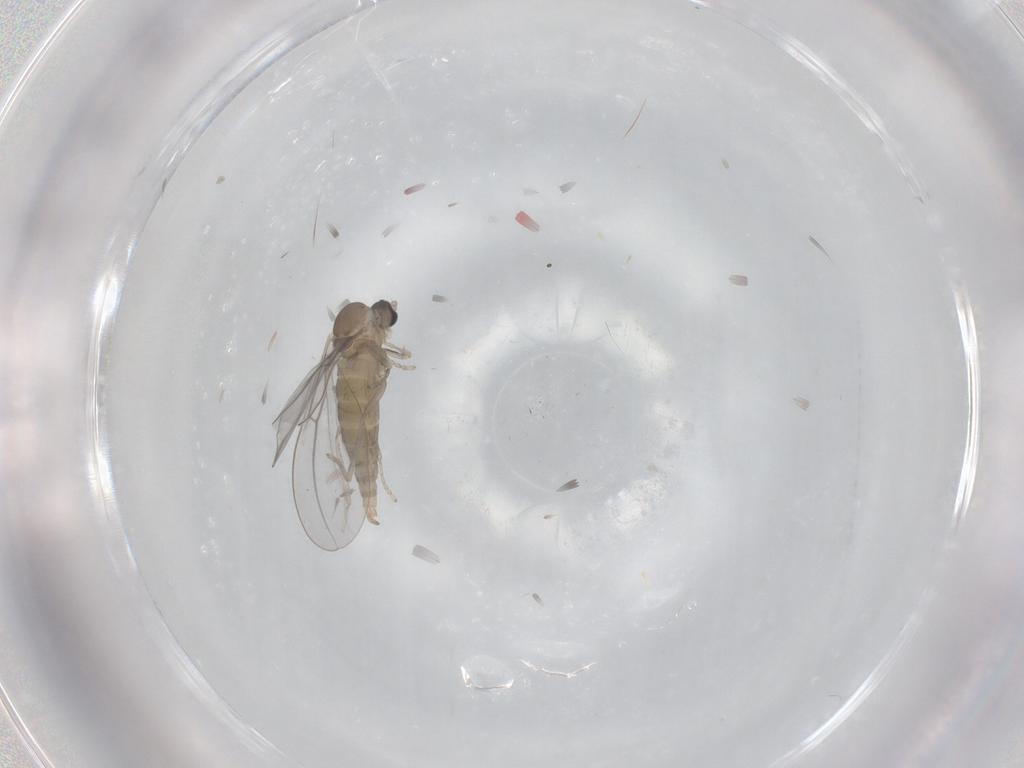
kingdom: Animalia
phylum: Arthropoda
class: Insecta
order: Diptera
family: Cecidomyiidae
